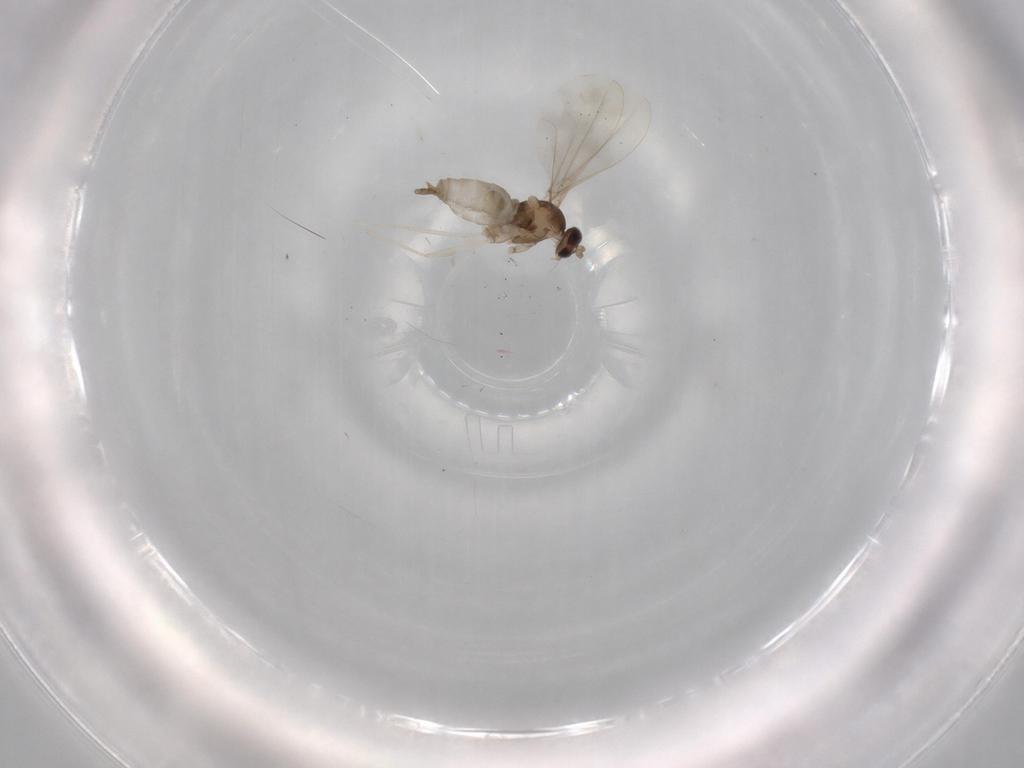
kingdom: Animalia
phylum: Arthropoda
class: Insecta
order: Diptera
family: Cecidomyiidae
